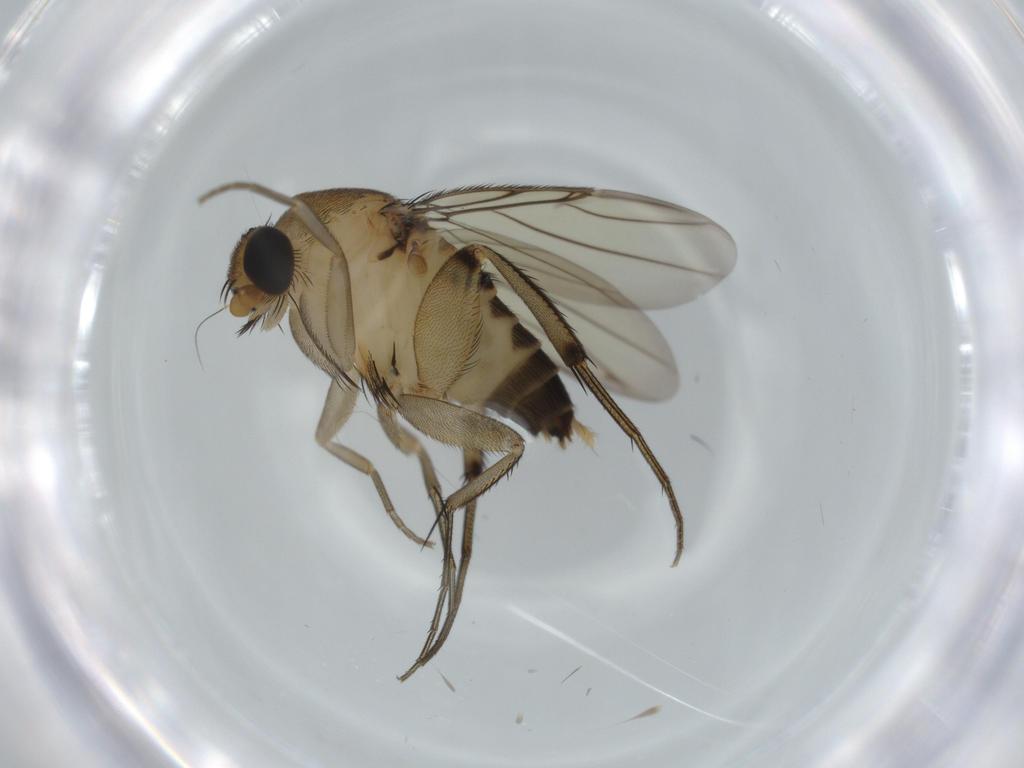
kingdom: Animalia
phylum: Arthropoda
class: Insecta
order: Diptera
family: Phoridae
